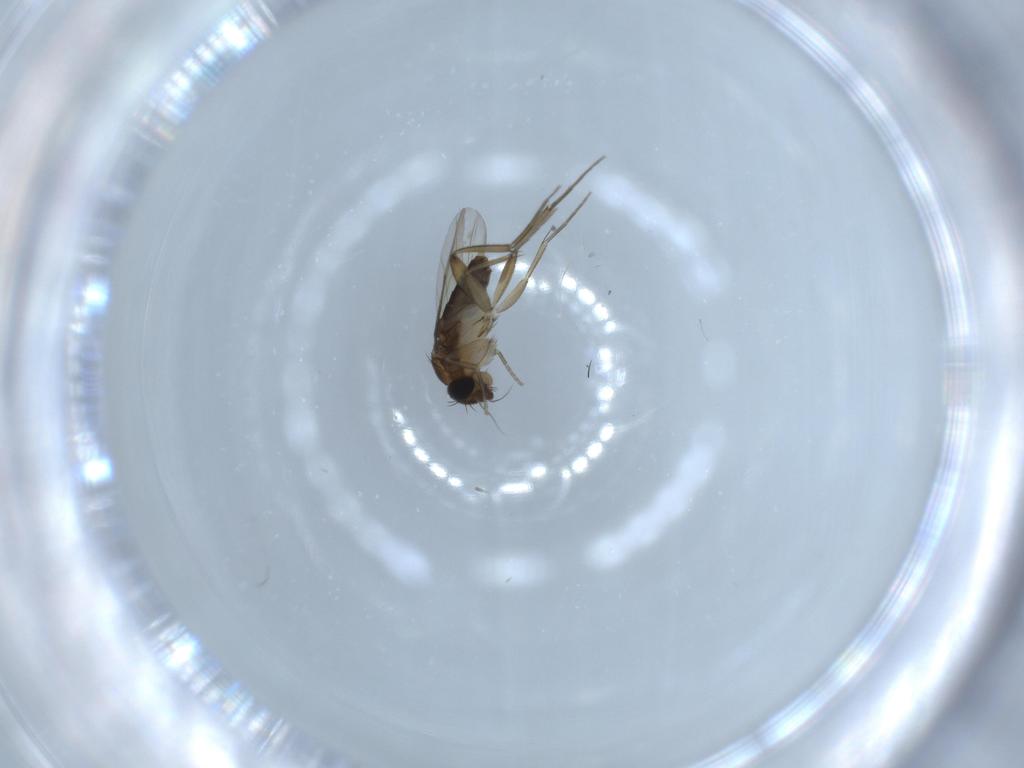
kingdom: Animalia
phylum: Arthropoda
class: Insecta
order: Diptera
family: Phoridae
